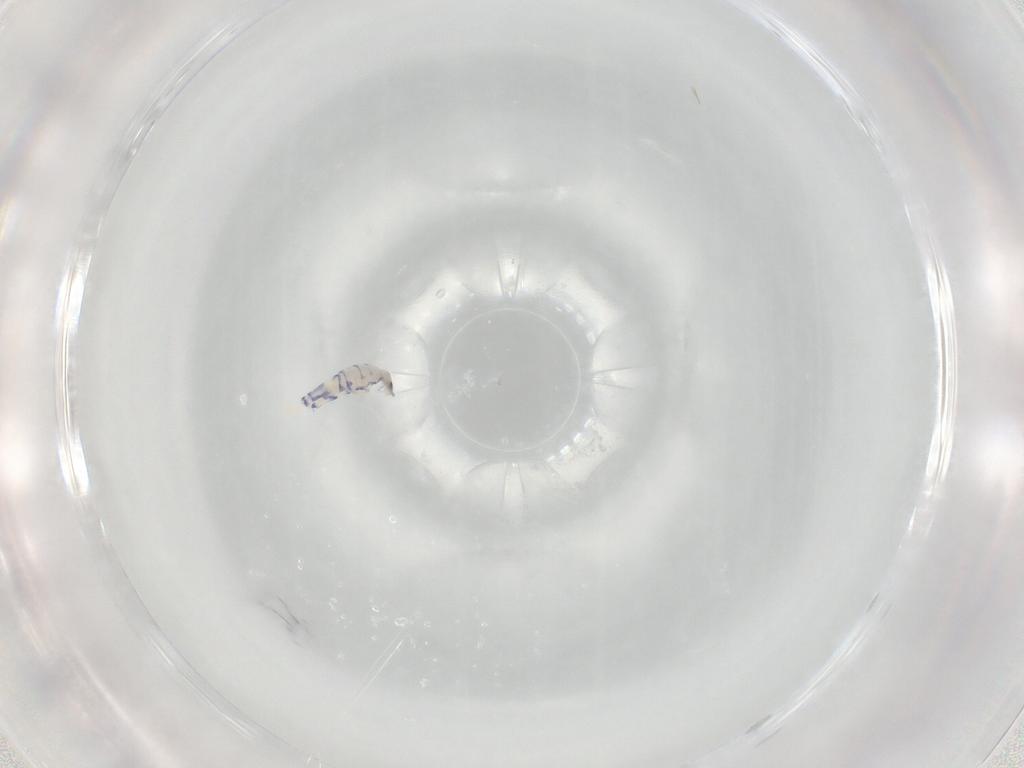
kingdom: Animalia
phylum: Arthropoda
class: Collembola
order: Entomobryomorpha
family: Entomobryidae
